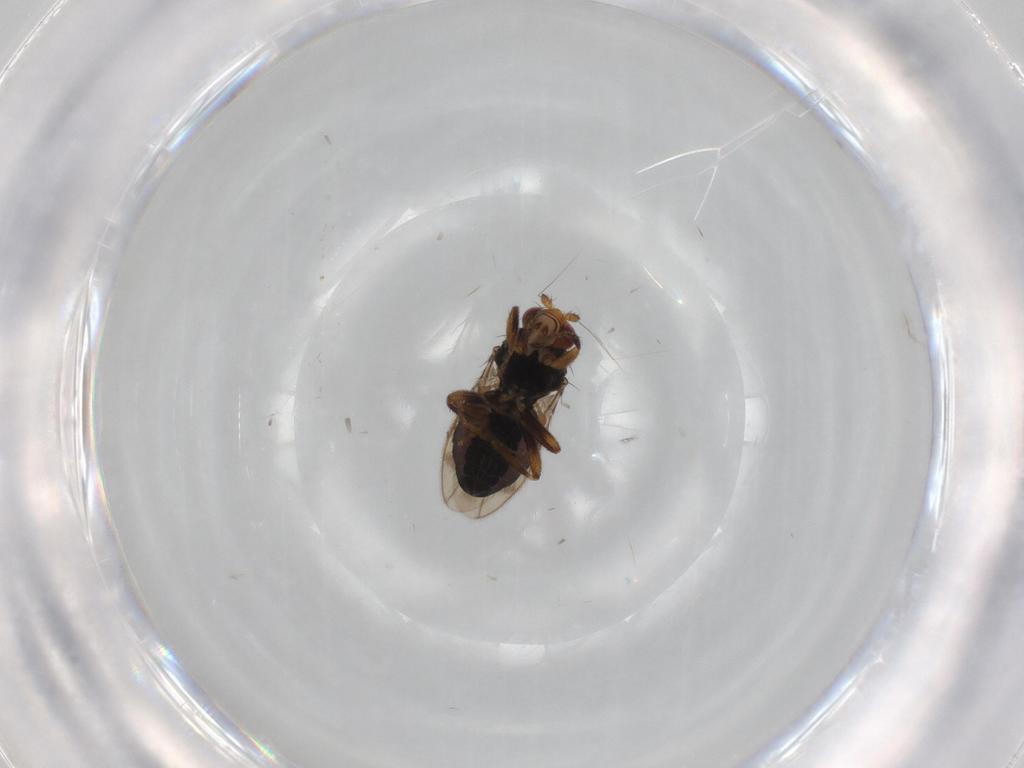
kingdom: Animalia
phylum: Arthropoda
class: Insecta
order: Diptera
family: Sphaeroceridae
